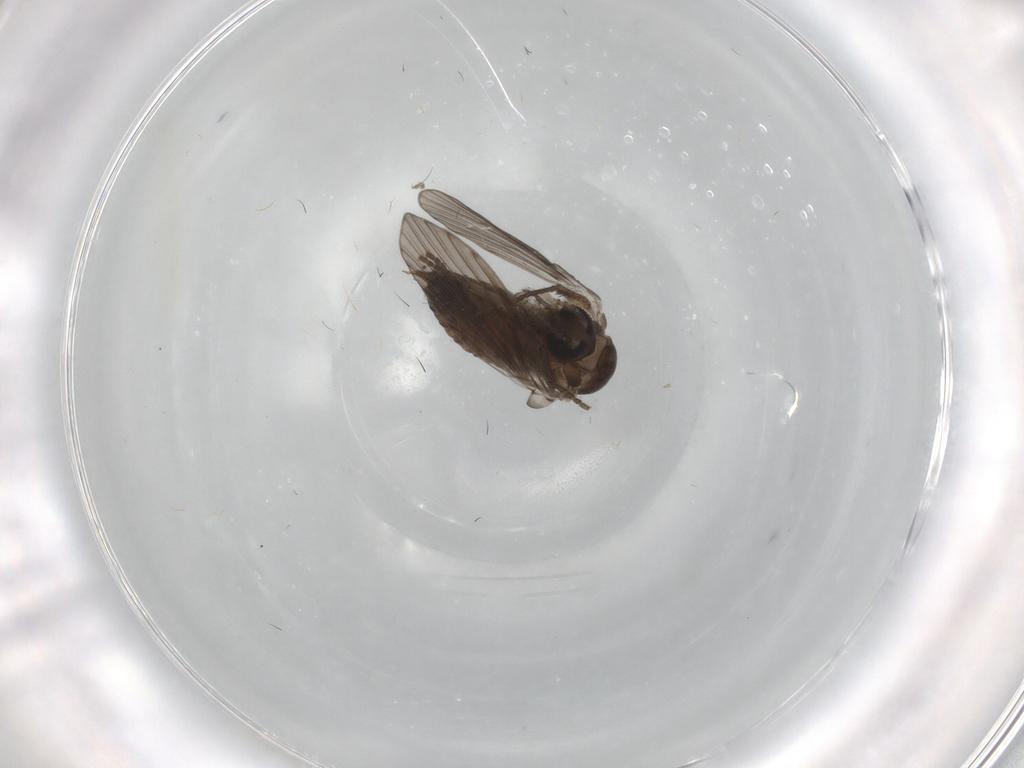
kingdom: Animalia
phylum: Arthropoda
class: Insecta
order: Diptera
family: Psychodidae
